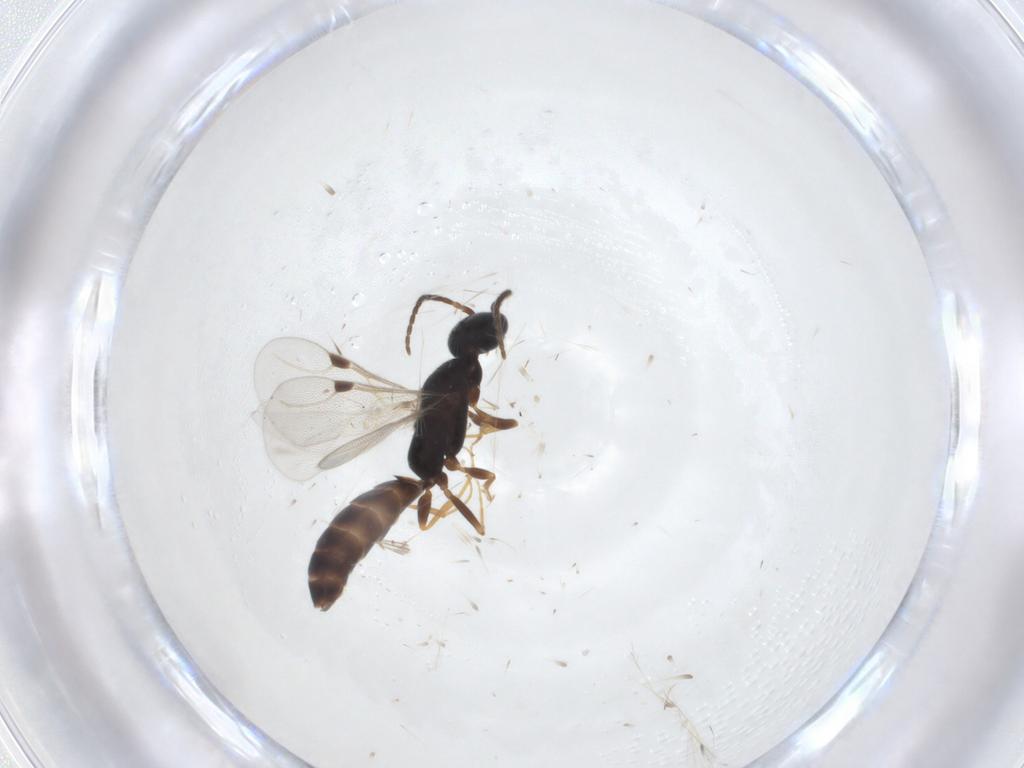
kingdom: Animalia
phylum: Arthropoda
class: Insecta
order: Hymenoptera
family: Bethylidae
